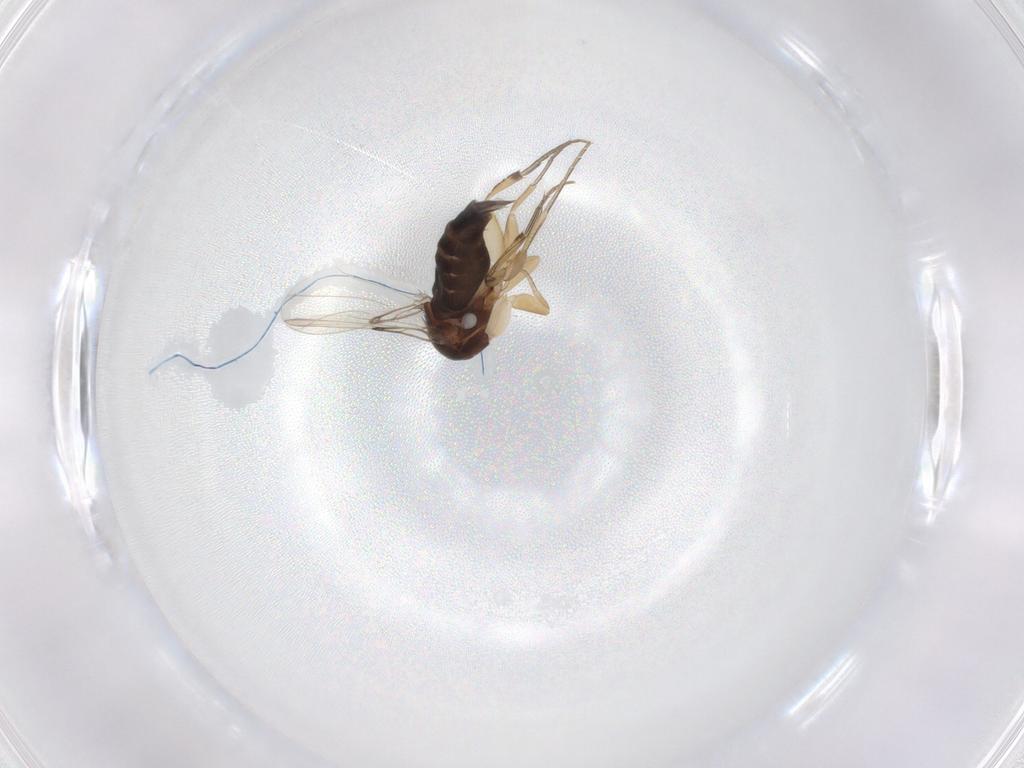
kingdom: Animalia
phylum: Arthropoda
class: Insecta
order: Diptera
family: Phoridae
